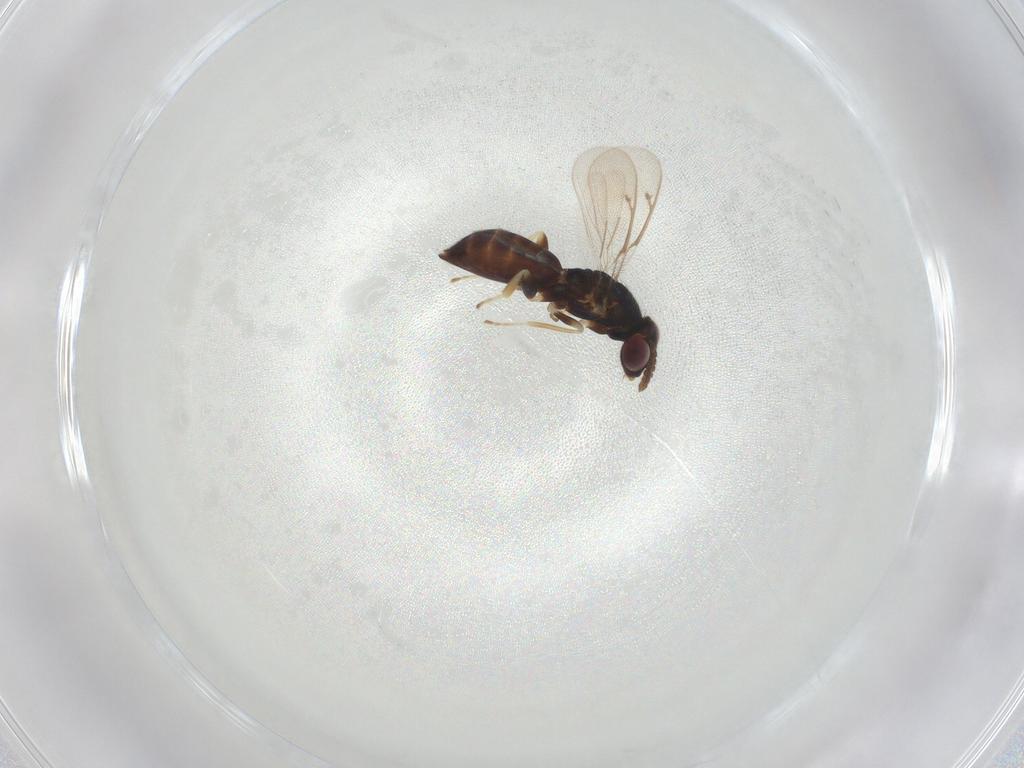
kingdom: Animalia
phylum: Arthropoda
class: Insecta
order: Hymenoptera
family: Eulophidae
